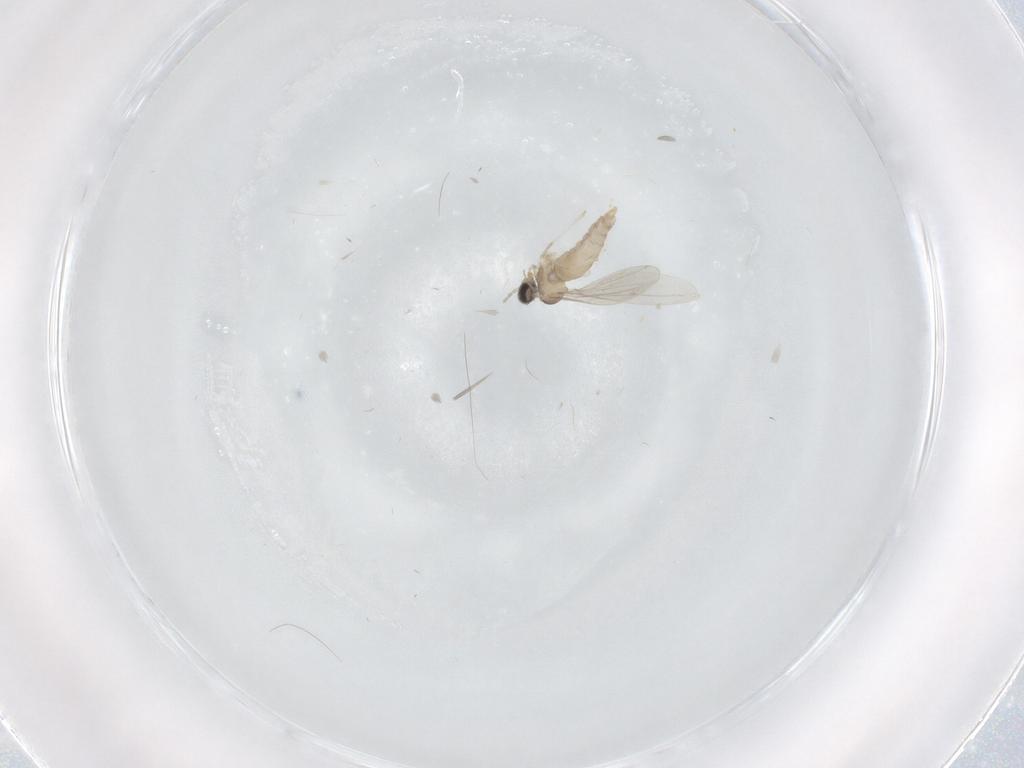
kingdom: Animalia
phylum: Arthropoda
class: Insecta
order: Diptera
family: Cecidomyiidae
